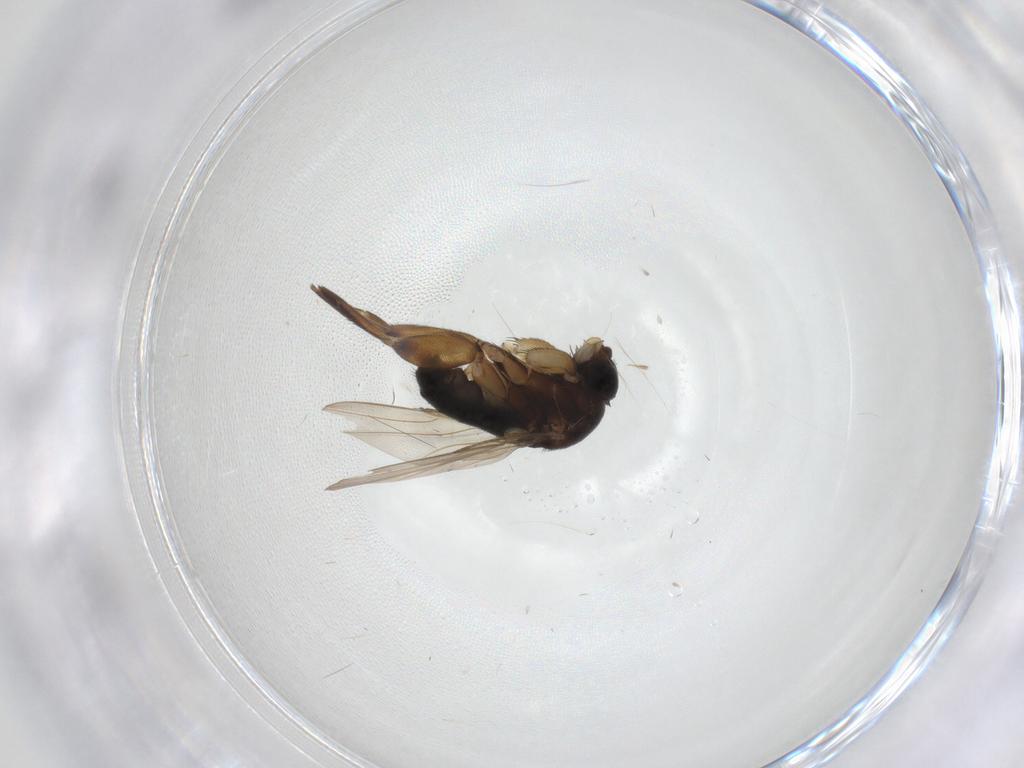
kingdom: Animalia
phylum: Arthropoda
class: Insecta
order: Diptera
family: Phoridae
